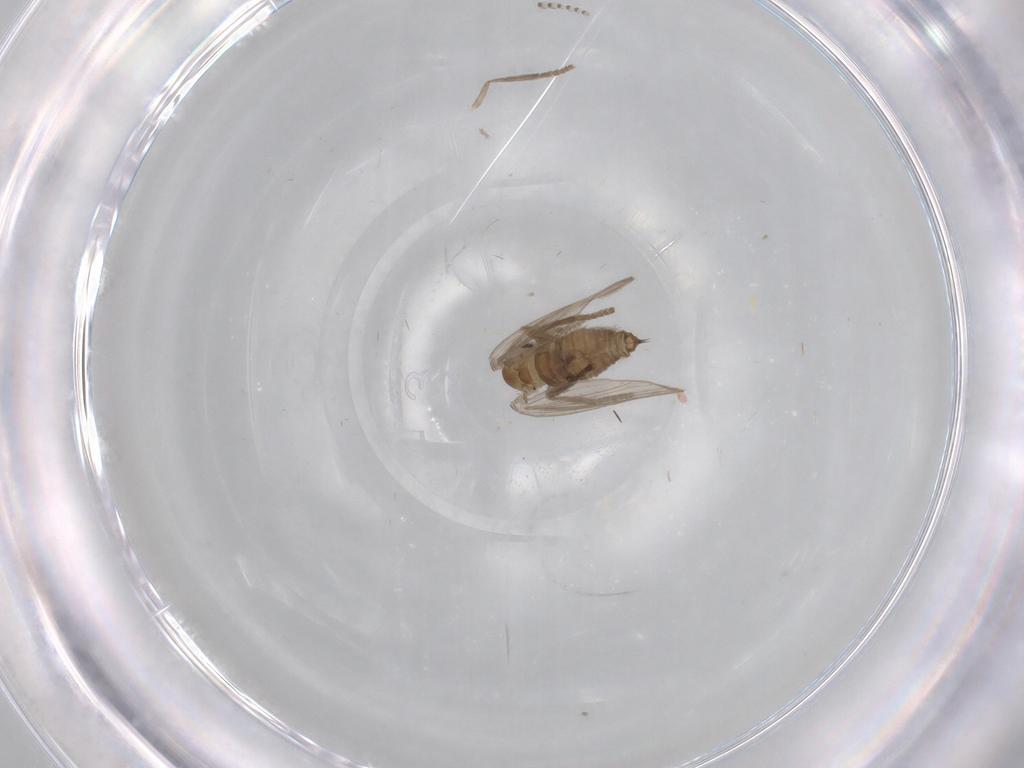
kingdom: Animalia
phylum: Arthropoda
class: Insecta
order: Diptera
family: Psychodidae
